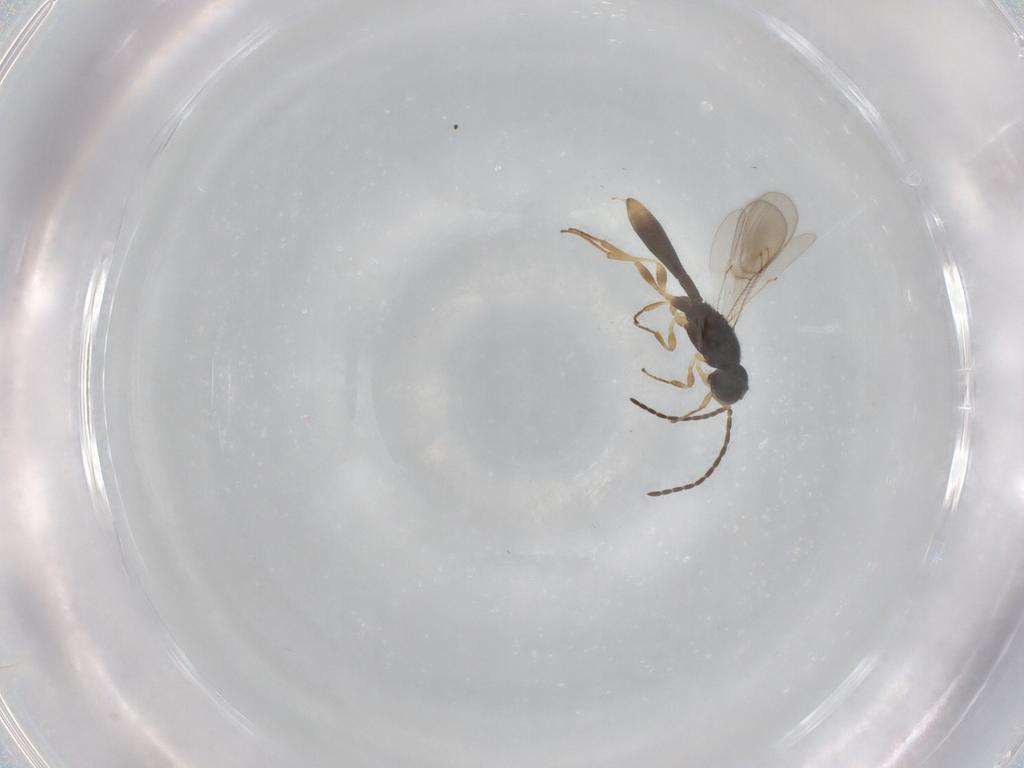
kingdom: Animalia
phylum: Arthropoda
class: Insecta
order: Hymenoptera
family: Scelionidae
